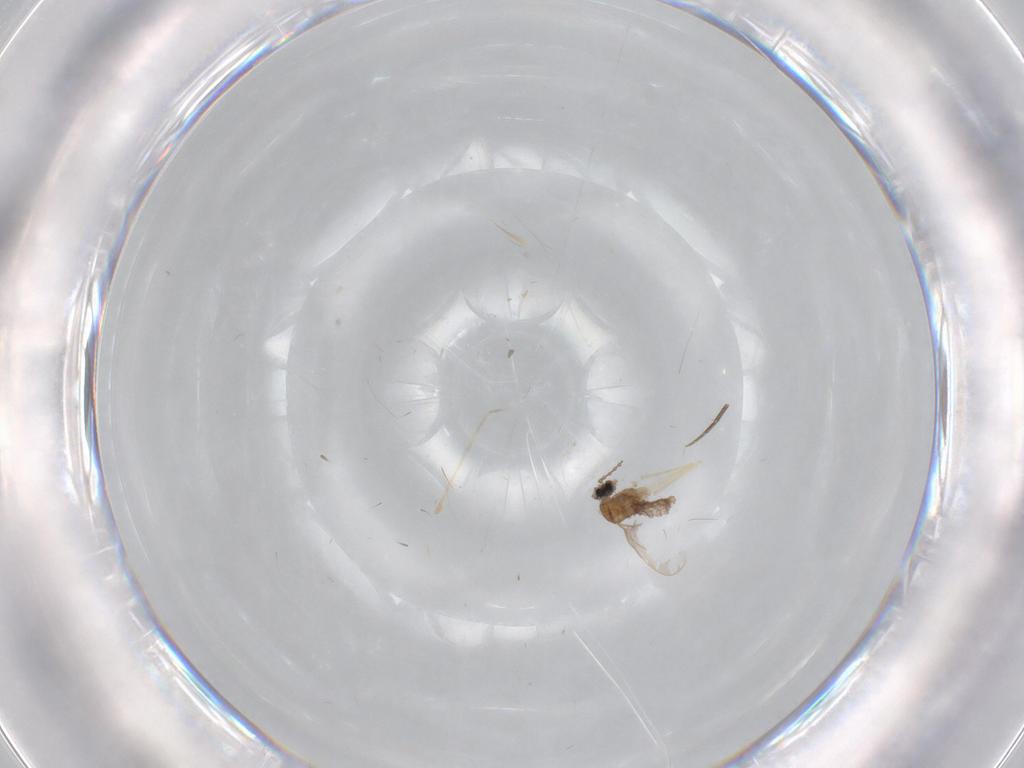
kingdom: Animalia
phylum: Arthropoda
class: Insecta
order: Diptera
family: Cecidomyiidae
